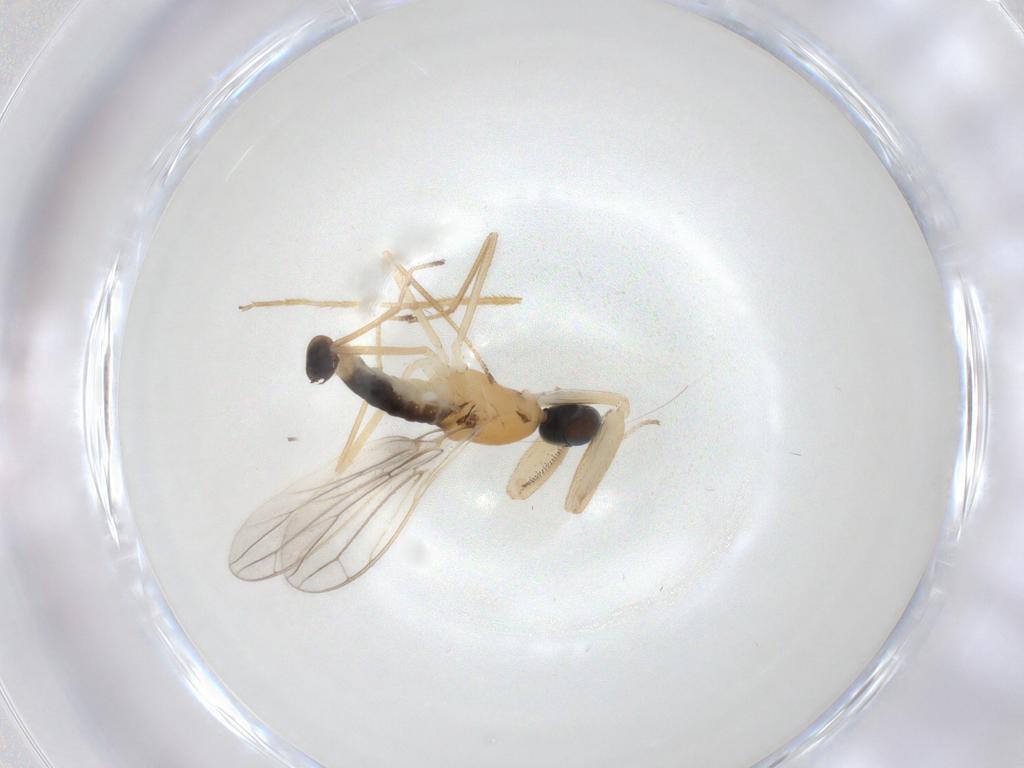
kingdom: Animalia
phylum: Arthropoda
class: Insecta
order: Diptera
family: Empididae
